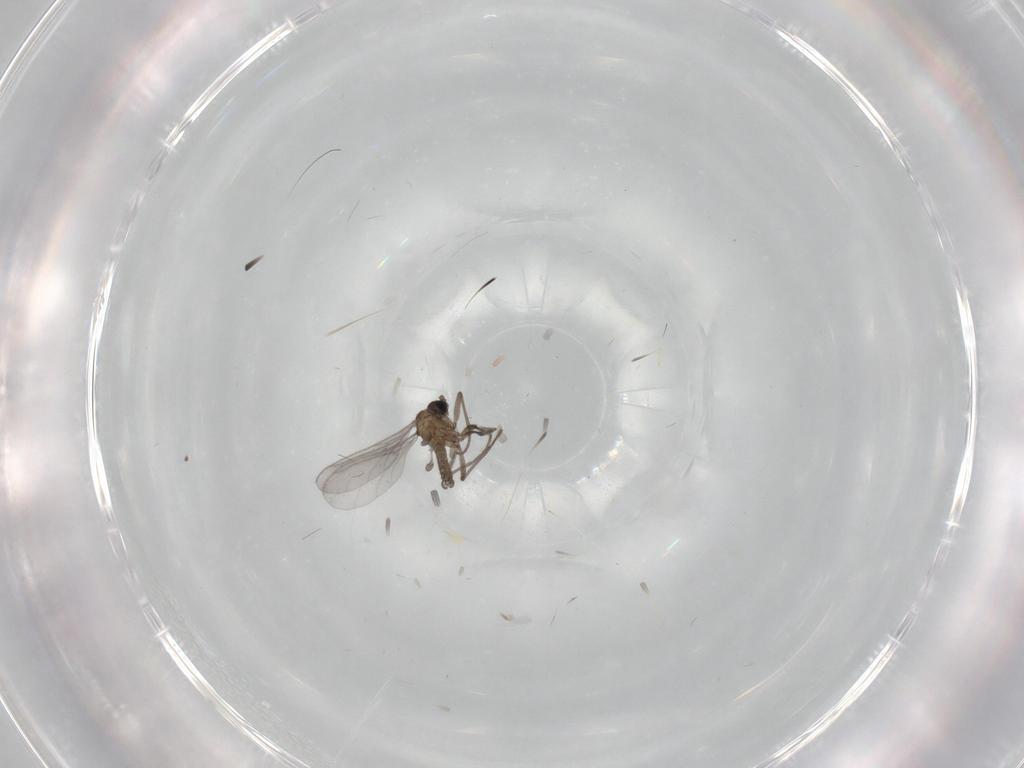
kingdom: Animalia
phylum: Arthropoda
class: Insecta
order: Diptera
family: Sciaridae
